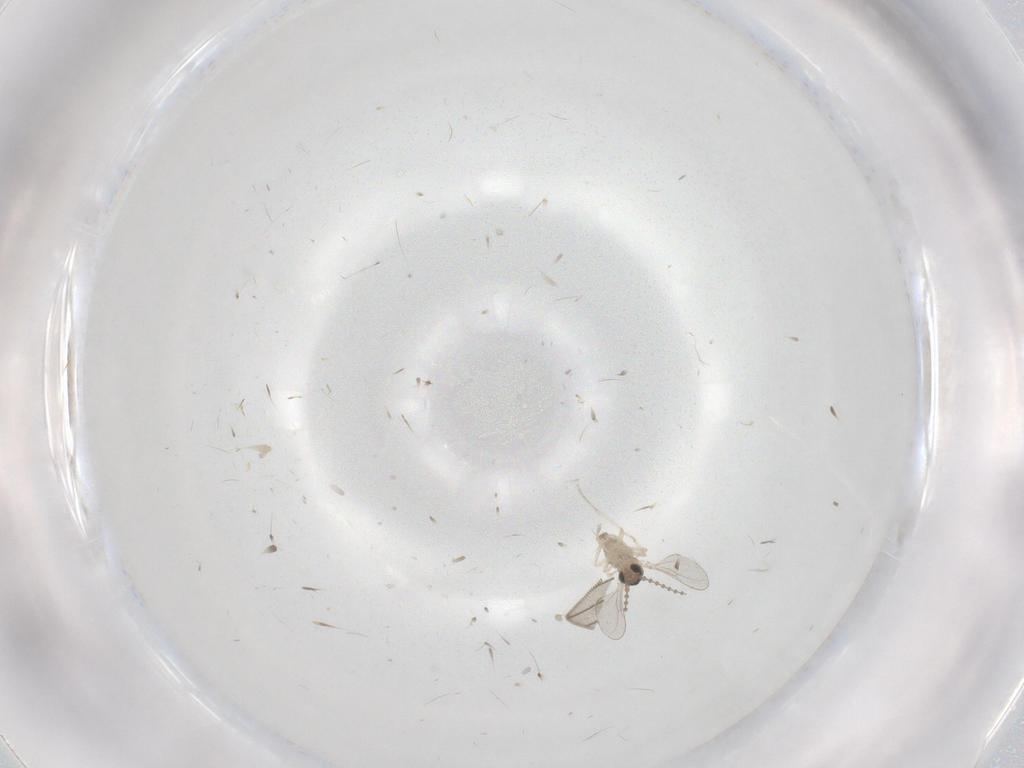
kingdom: Animalia
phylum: Arthropoda
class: Insecta
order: Diptera
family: Cecidomyiidae
